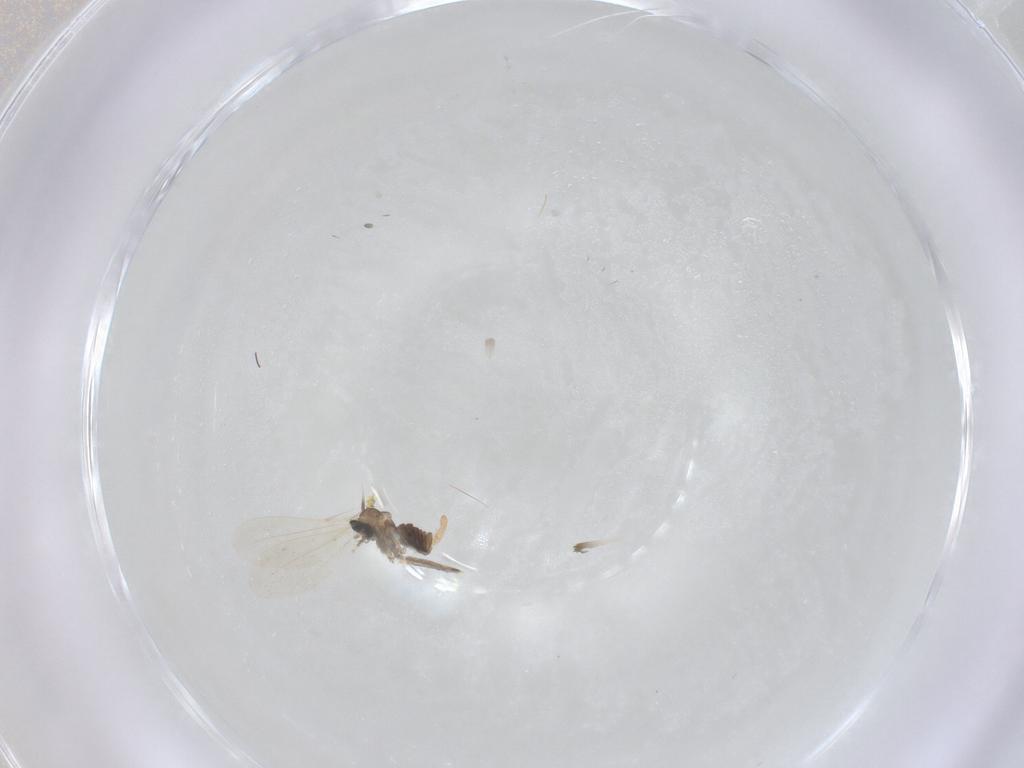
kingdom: Animalia
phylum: Arthropoda
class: Insecta
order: Diptera
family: Cecidomyiidae
